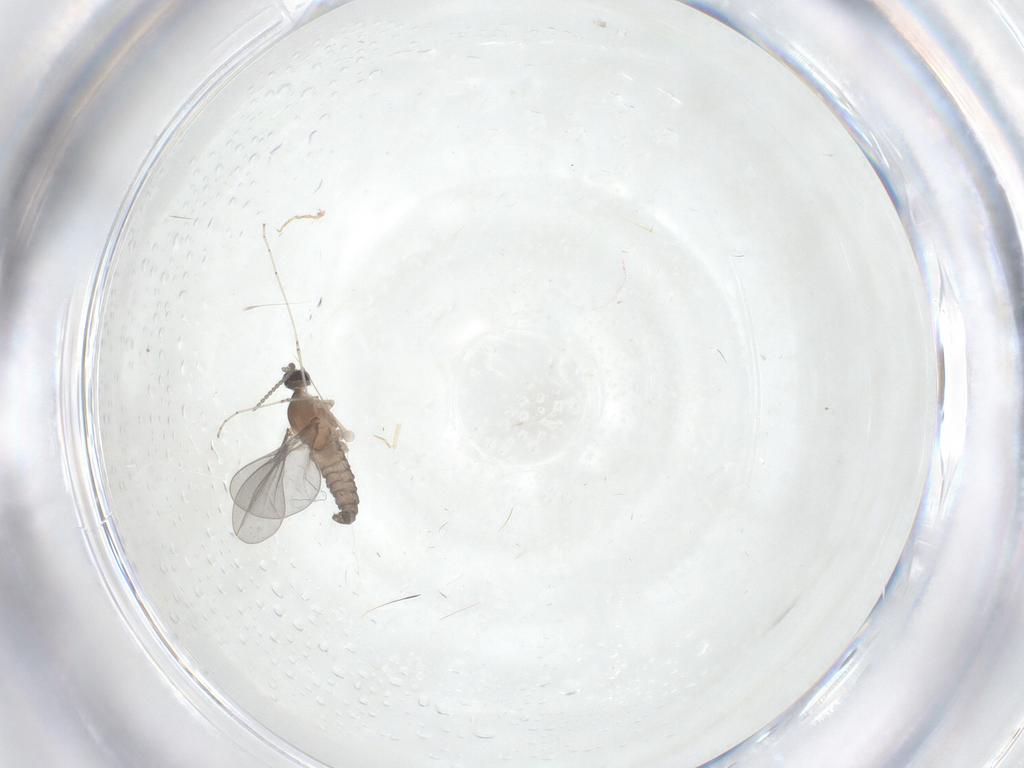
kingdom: Animalia
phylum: Arthropoda
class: Insecta
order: Diptera
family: Cecidomyiidae
